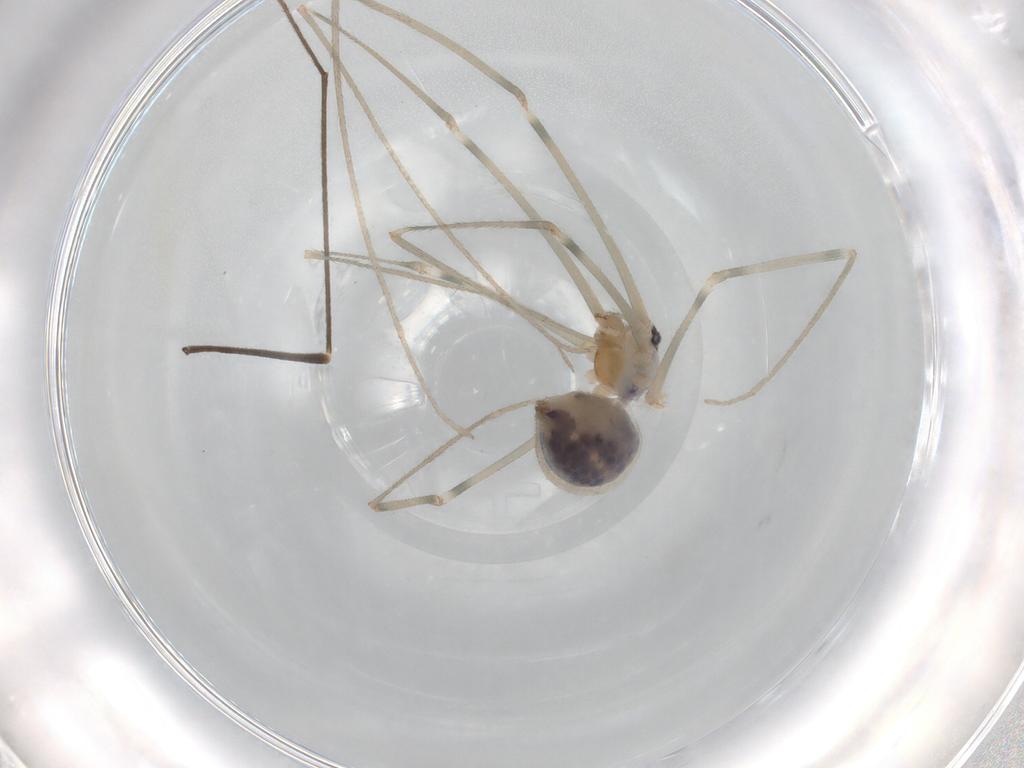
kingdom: Animalia
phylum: Arthropoda
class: Arachnida
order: Araneae
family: Pholcidae
